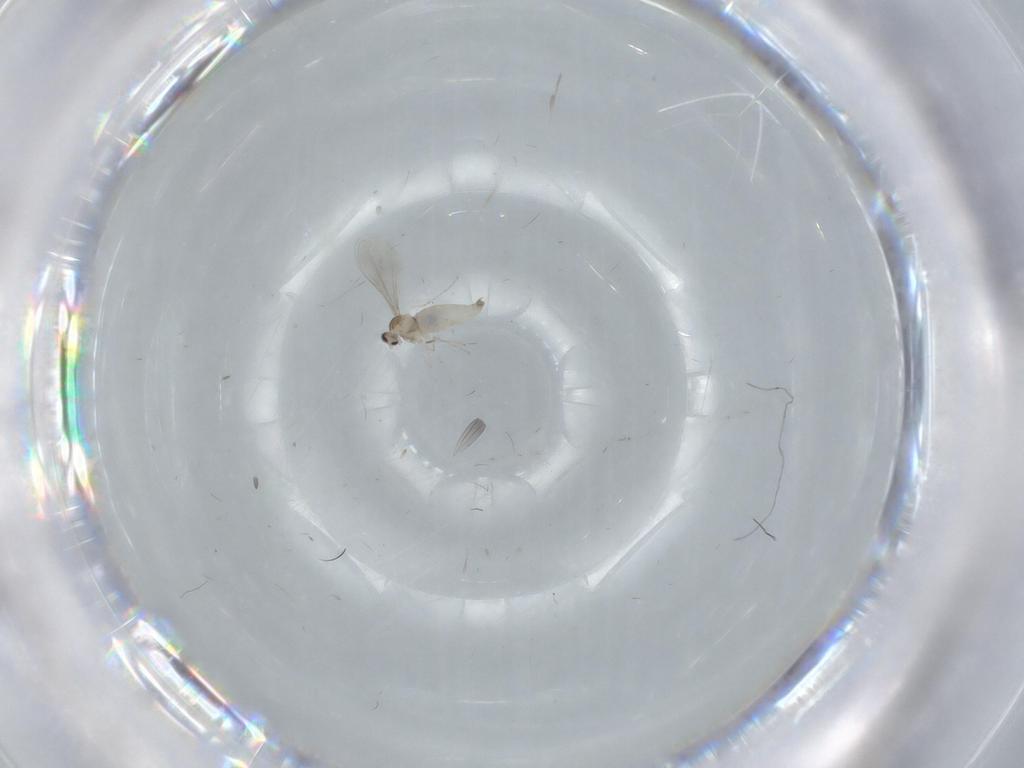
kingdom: Animalia
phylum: Arthropoda
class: Insecta
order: Diptera
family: Cecidomyiidae
